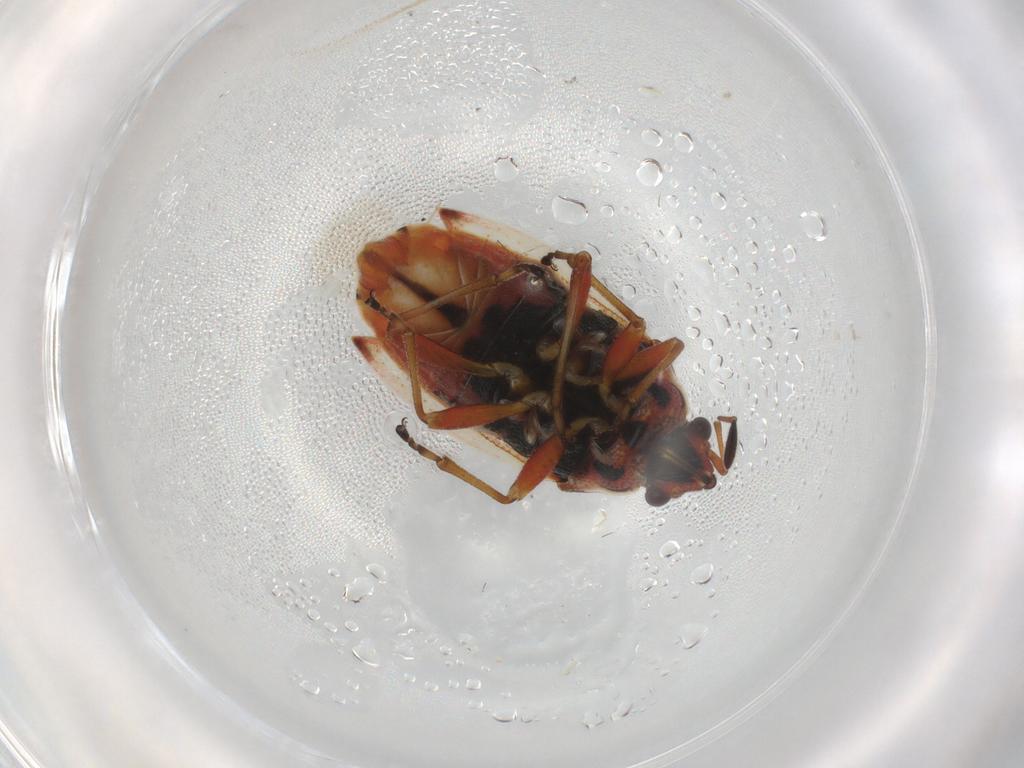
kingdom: Animalia
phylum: Arthropoda
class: Insecta
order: Hemiptera
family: Lygaeidae
